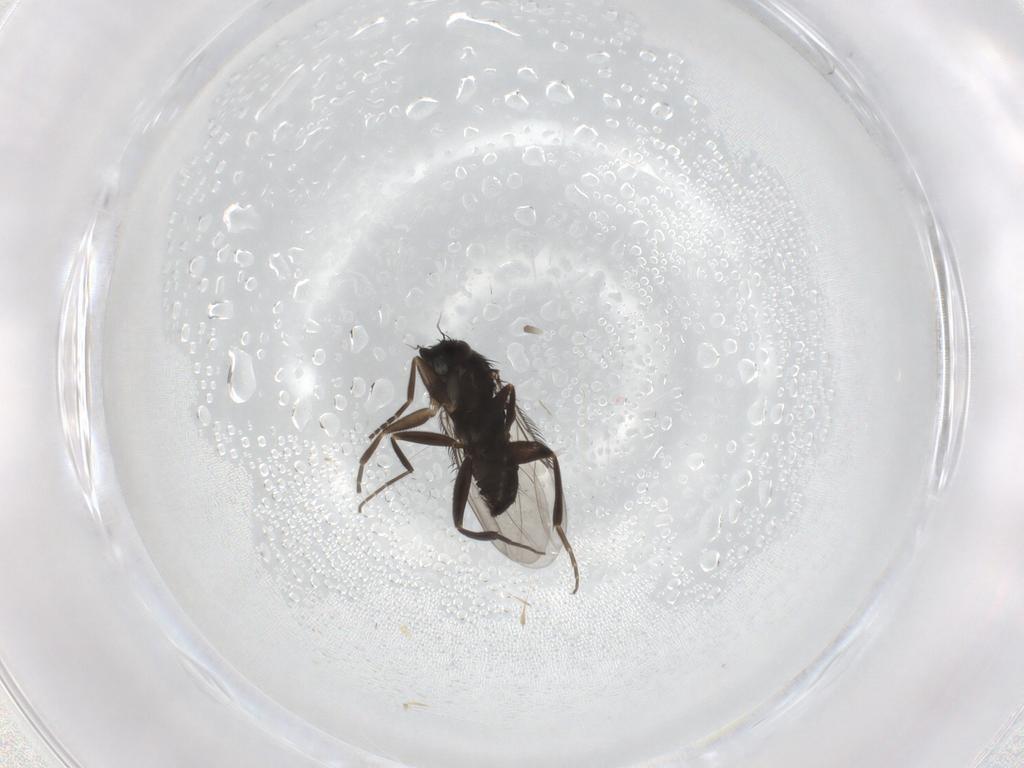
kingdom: Animalia
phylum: Arthropoda
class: Insecta
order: Diptera
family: Phoridae
